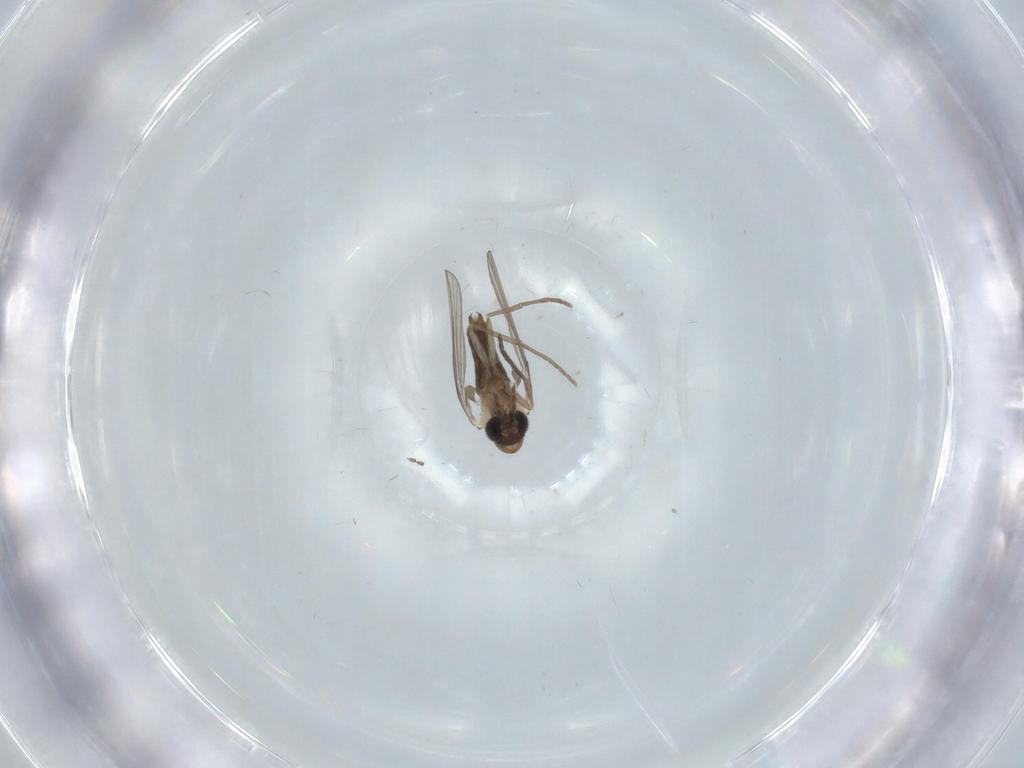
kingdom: Animalia
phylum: Arthropoda
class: Insecta
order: Diptera
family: Psychodidae
